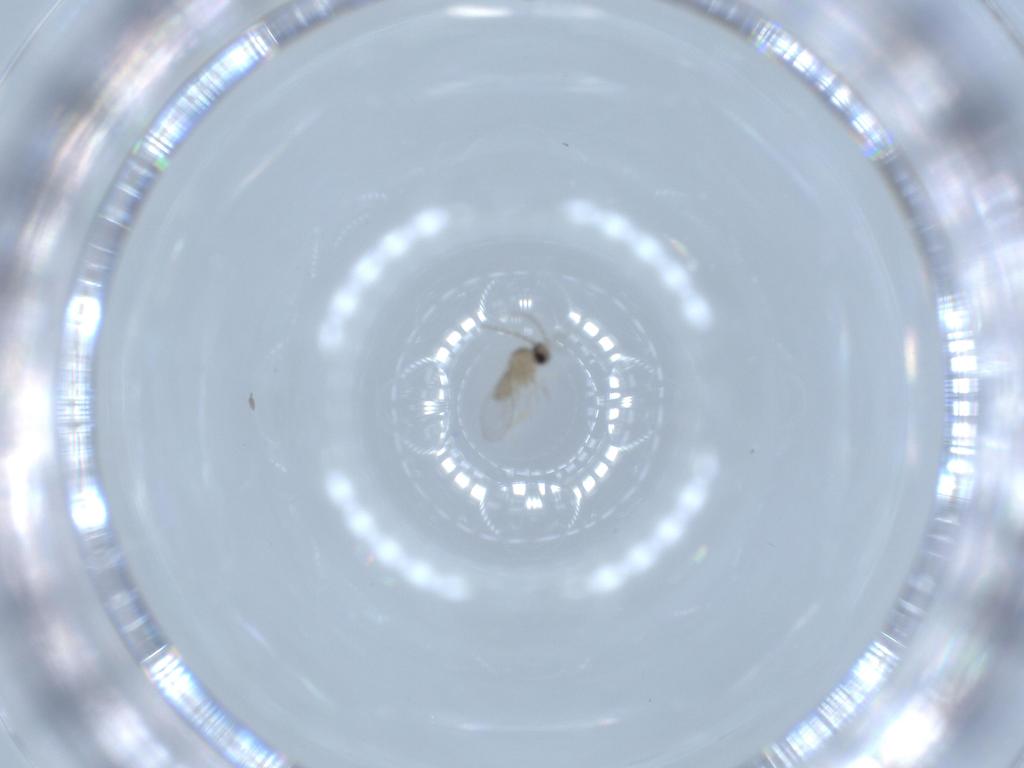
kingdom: Animalia
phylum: Arthropoda
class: Insecta
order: Diptera
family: Cecidomyiidae
